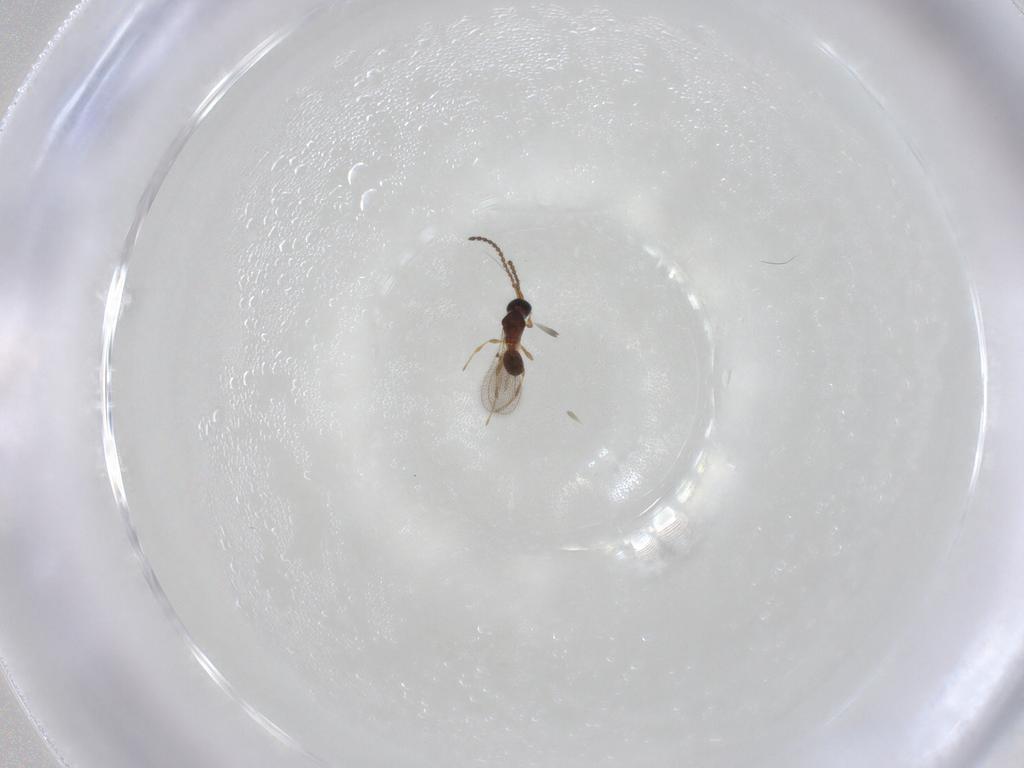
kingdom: Animalia
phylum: Arthropoda
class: Insecta
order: Hymenoptera
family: Diapriidae
